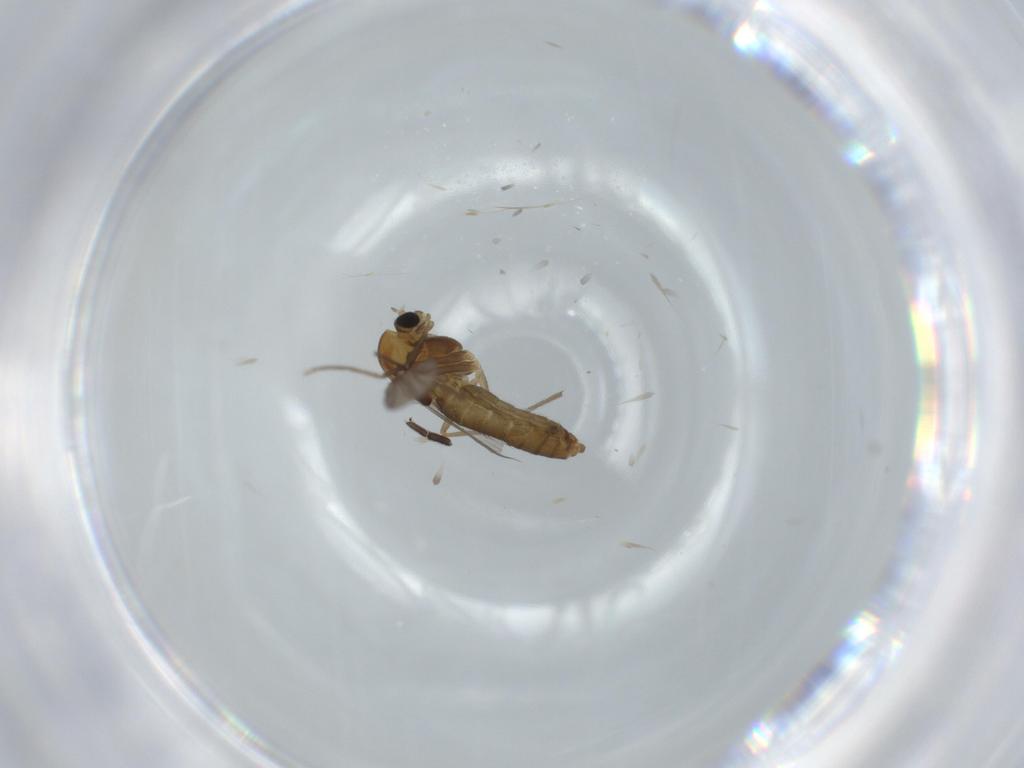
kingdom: Animalia
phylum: Arthropoda
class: Insecta
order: Diptera
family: Chironomidae
